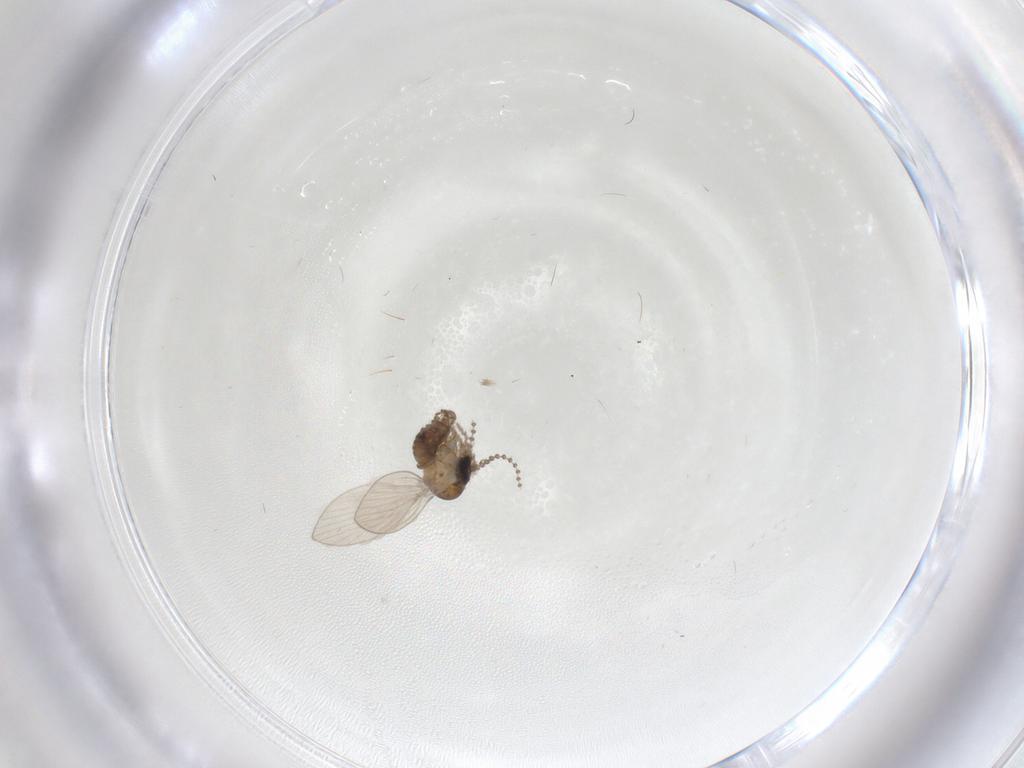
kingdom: Animalia
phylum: Arthropoda
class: Insecta
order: Diptera
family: Psychodidae
